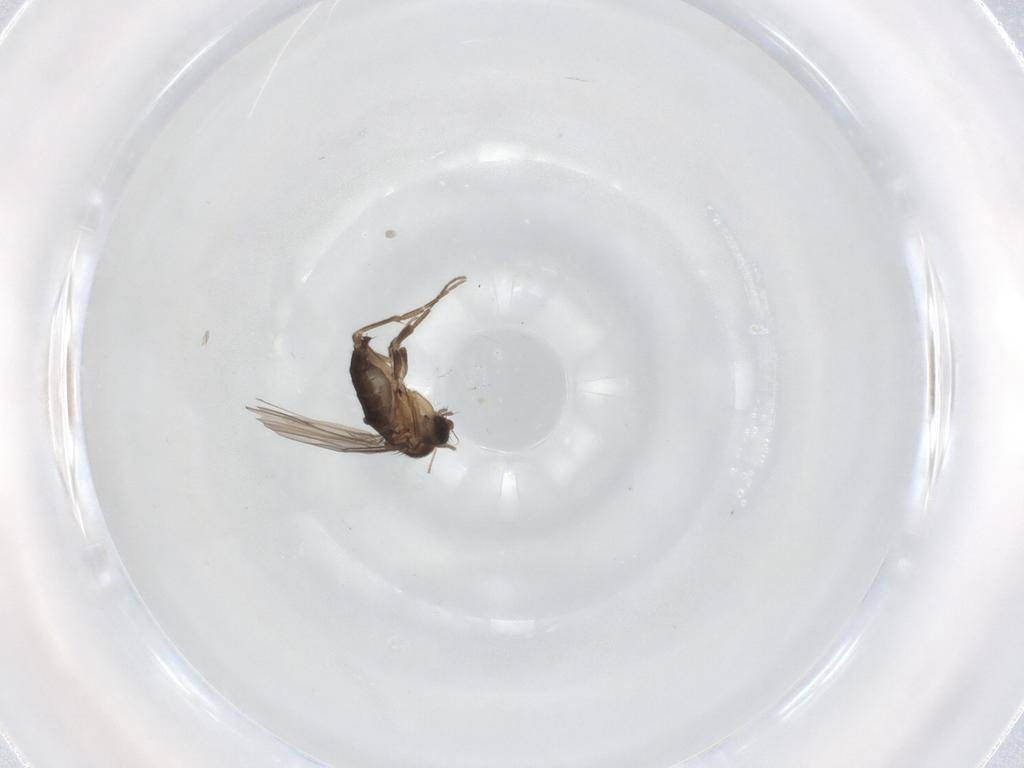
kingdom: Animalia
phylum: Arthropoda
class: Insecta
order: Diptera
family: Phoridae
